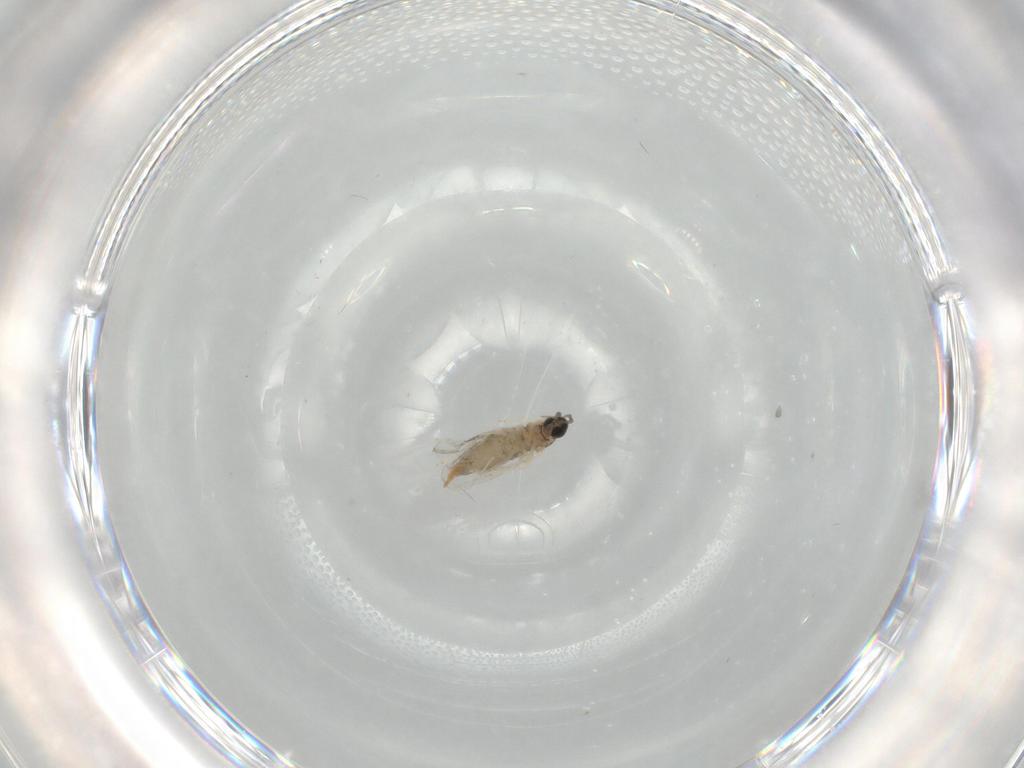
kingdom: Animalia
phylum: Arthropoda
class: Insecta
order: Diptera
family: Cecidomyiidae
